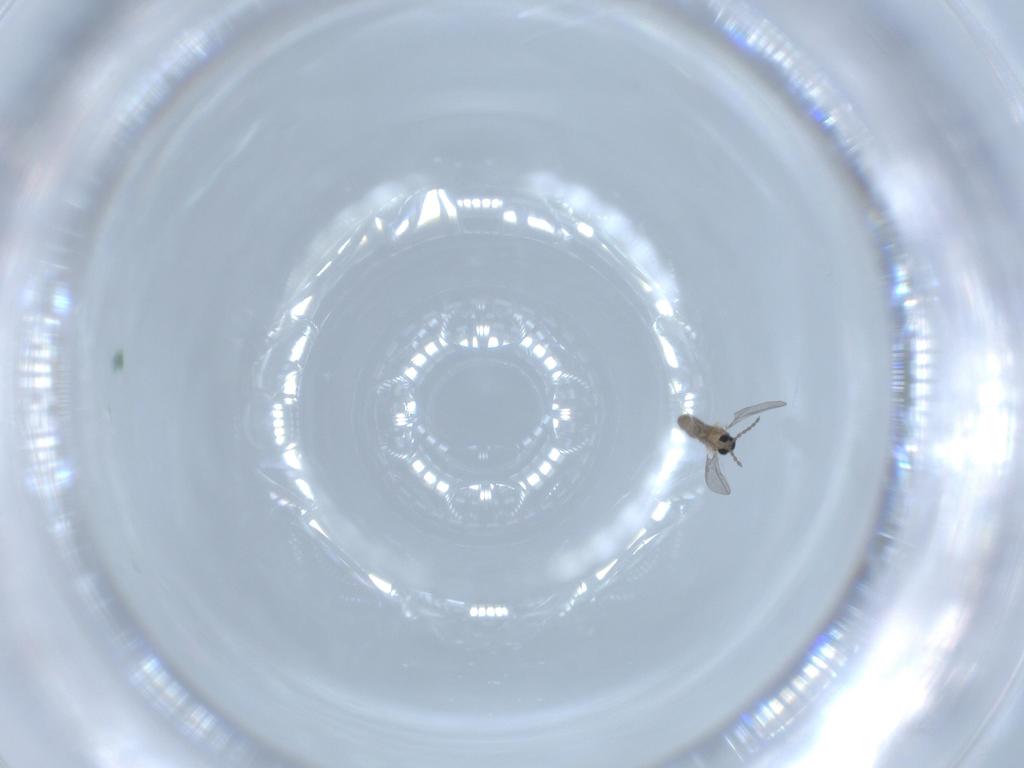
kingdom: Animalia
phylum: Arthropoda
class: Insecta
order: Diptera
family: Cecidomyiidae
